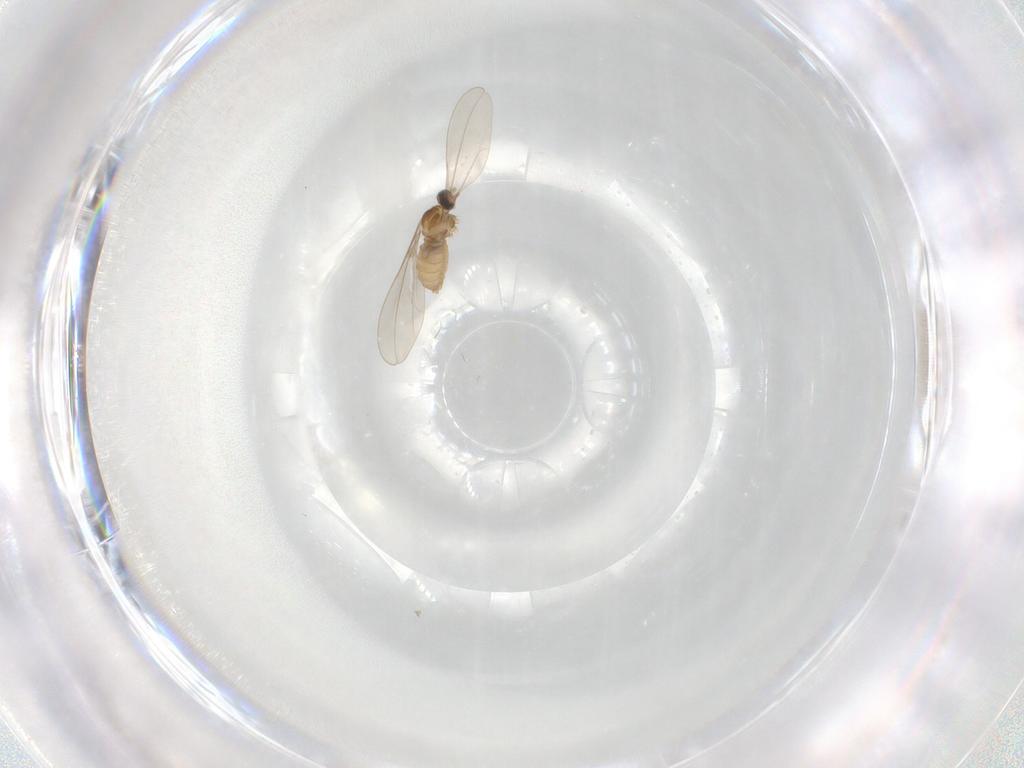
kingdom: Animalia
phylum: Arthropoda
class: Insecta
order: Diptera
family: Cecidomyiidae
